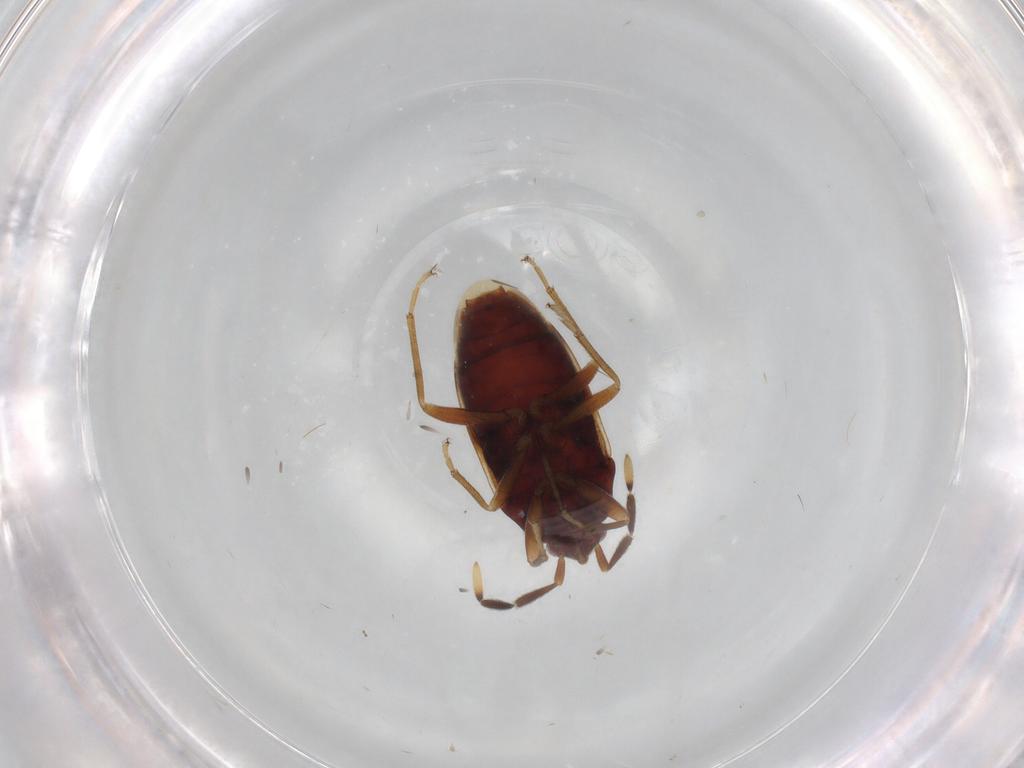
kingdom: Animalia
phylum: Arthropoda
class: Insecta
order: Hemiptera
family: Rhyparochromidae
